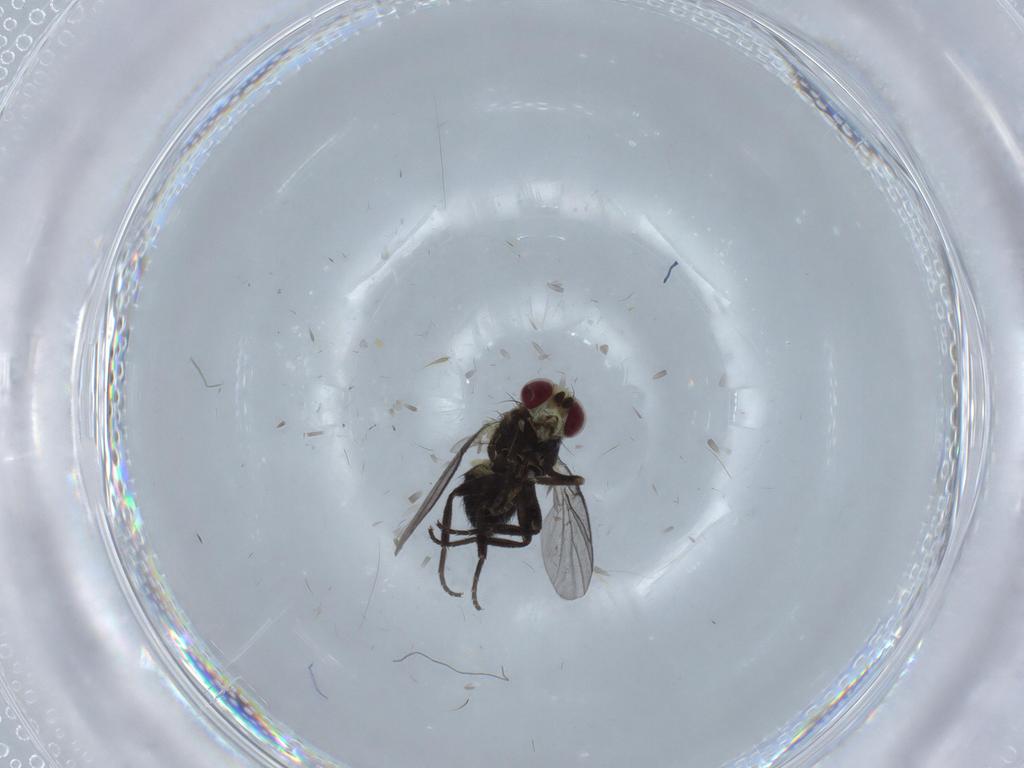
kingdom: Animalia
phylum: Arthropoda
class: Insecta
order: Diptera
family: Agromyzidae
